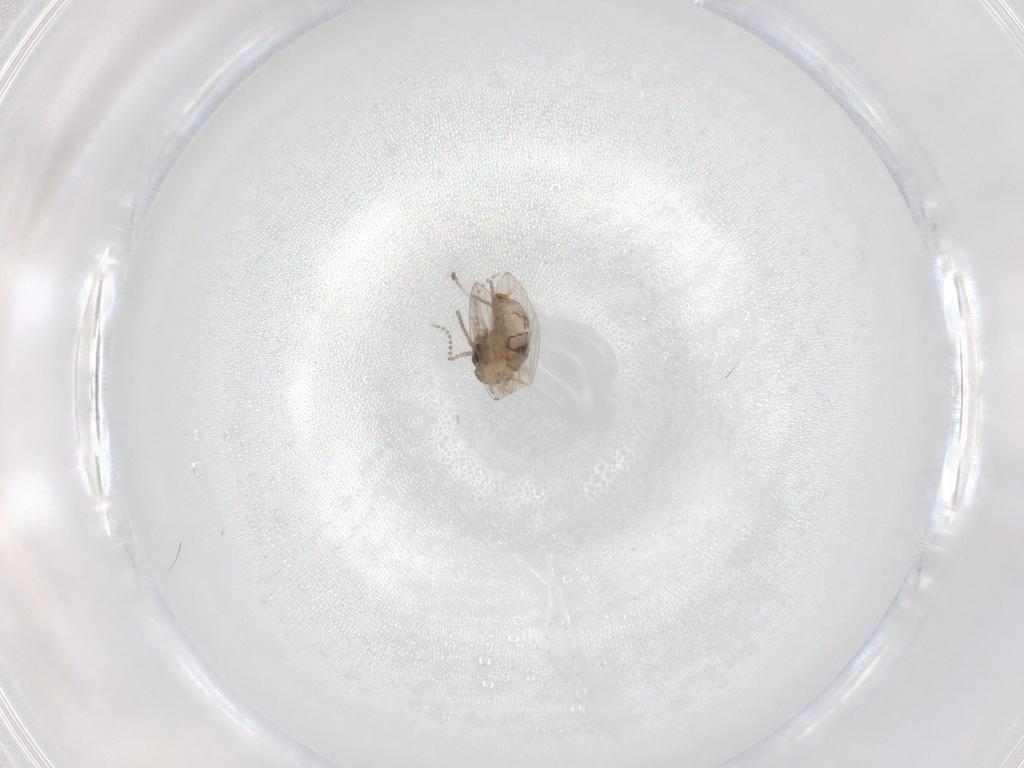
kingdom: Animalia
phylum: Arthropoda
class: Insecta
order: Diptera
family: Psychodidae
